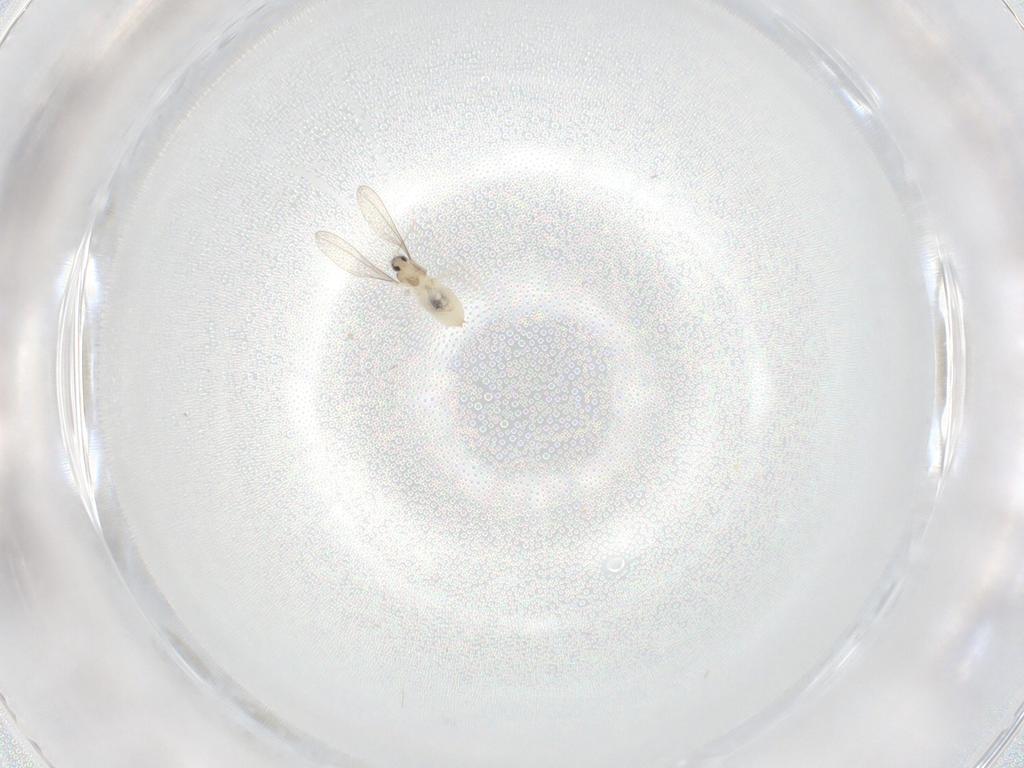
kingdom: Animalia
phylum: Arthropoda
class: Insecta
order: Diptera
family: Cecidomyiidae
